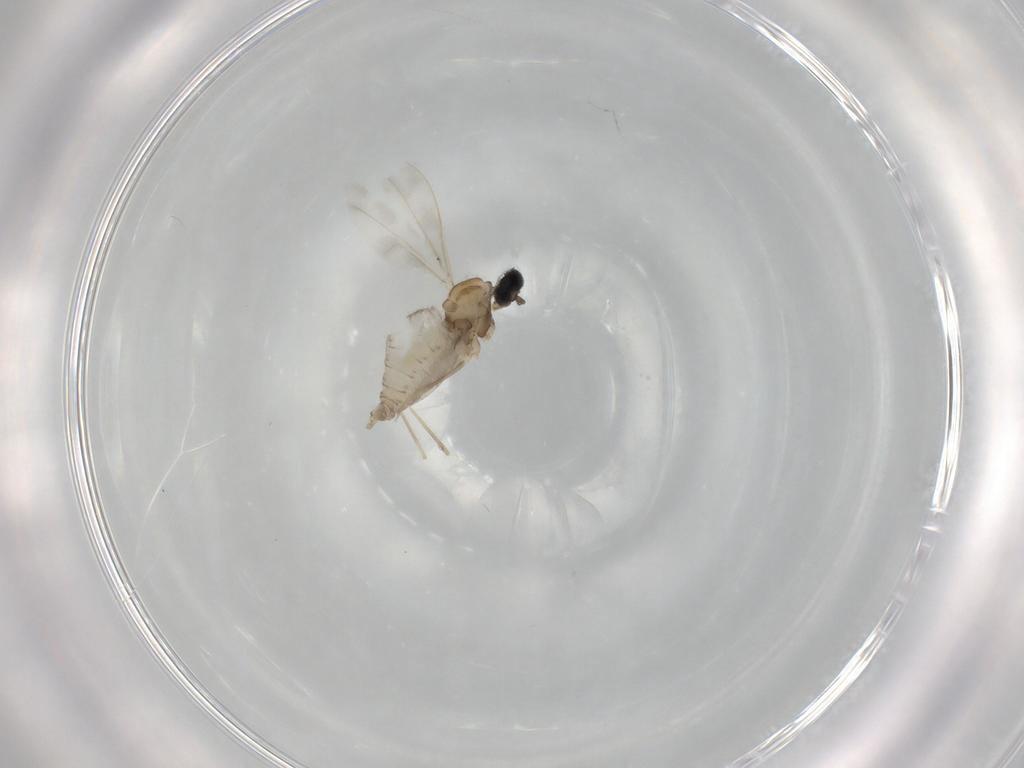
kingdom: Animalia
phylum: Arthropoda
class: Insecta
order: Diptera
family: Cecidomyiidae
